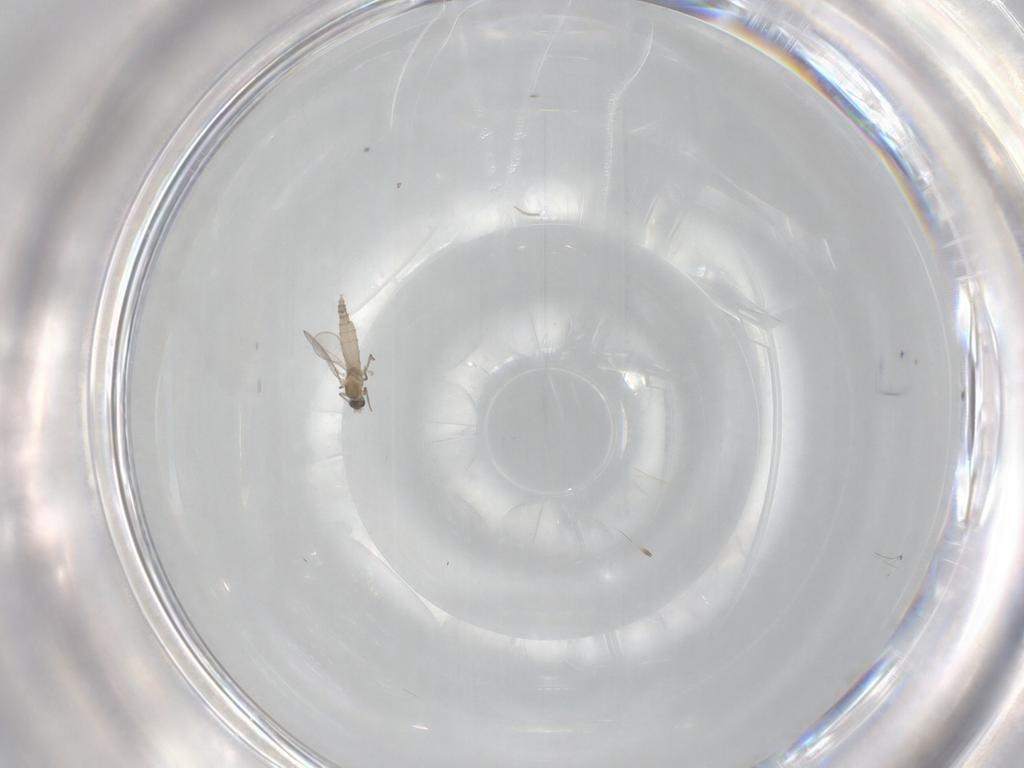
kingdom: Animalia
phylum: Arthropoda
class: Insecta
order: Diptera
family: Cecidomyiidae
